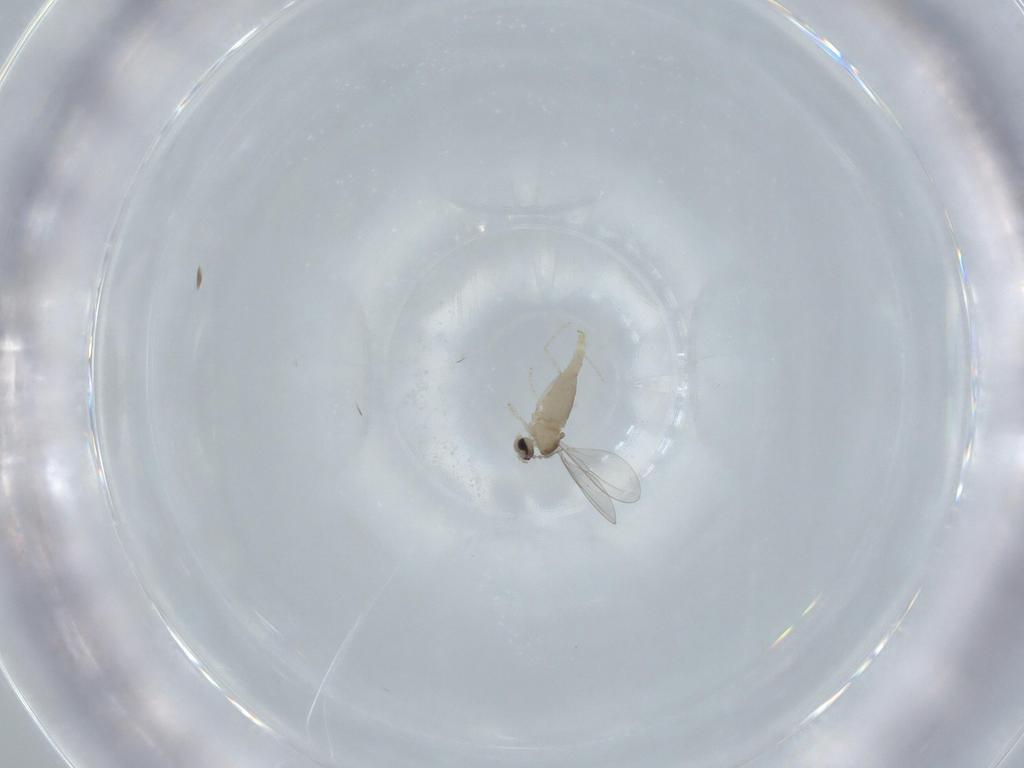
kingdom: Animalia
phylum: Arthropoda
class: Insecta
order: Diptera
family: Cecidomyiidae
